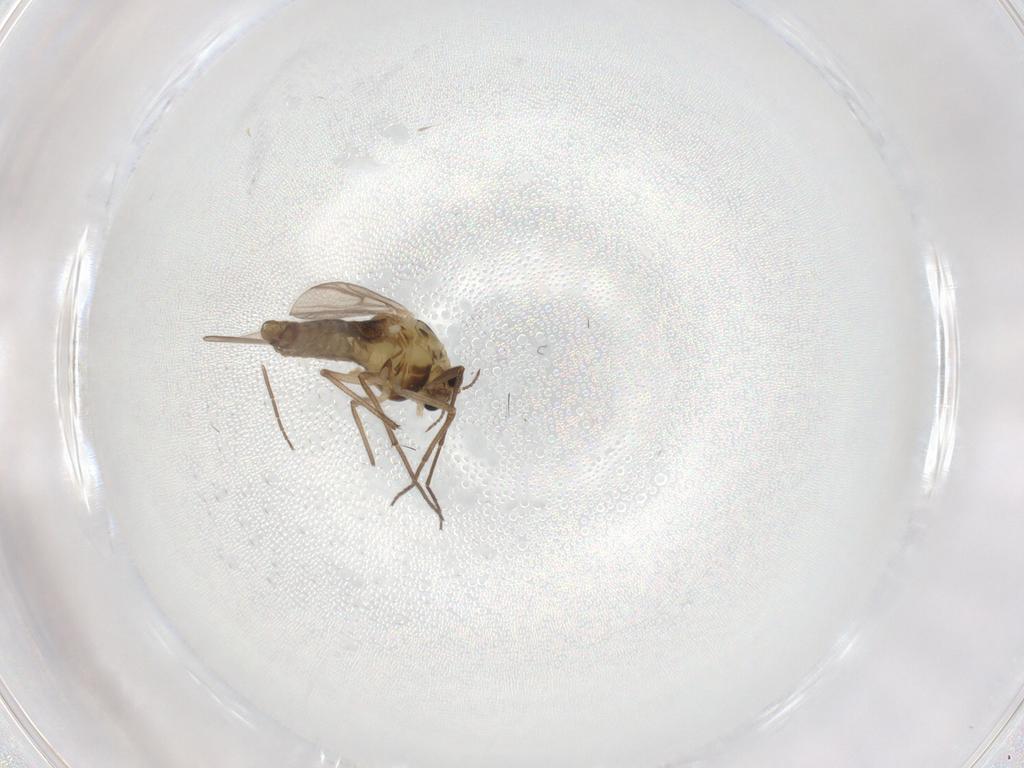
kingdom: Animalia
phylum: Arthropoda
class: Insecta
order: Diptera
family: Chironomidae
